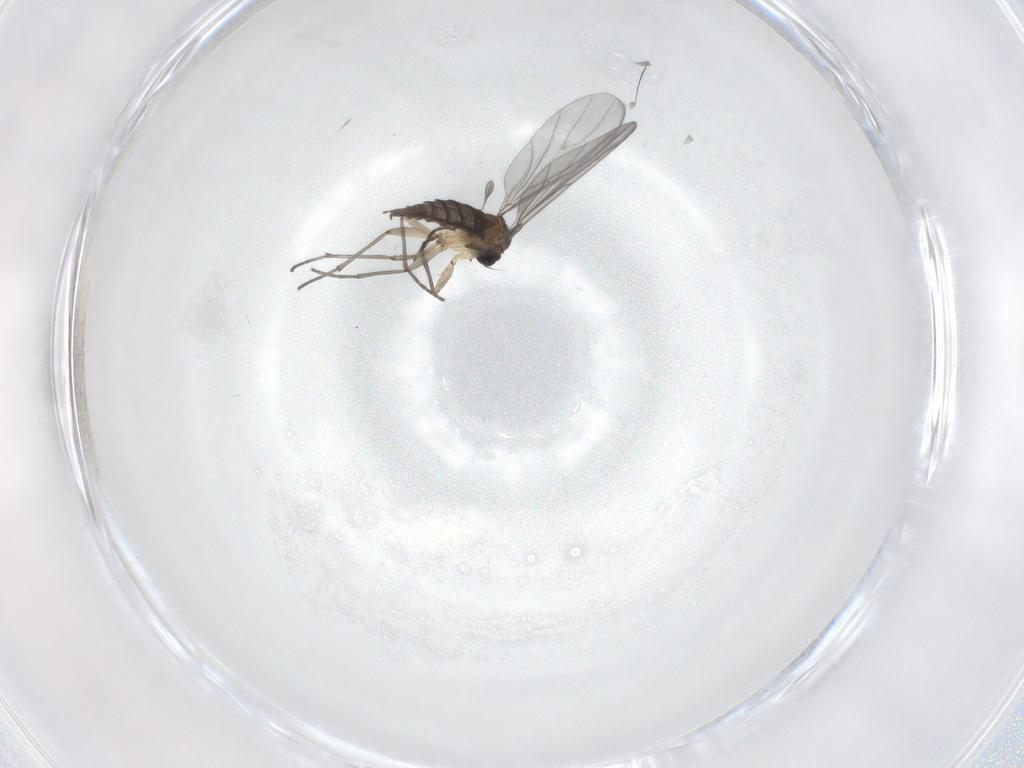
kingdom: Animalia
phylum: Arthropoda
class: Insecta
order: Diptera
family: Sciaridae
